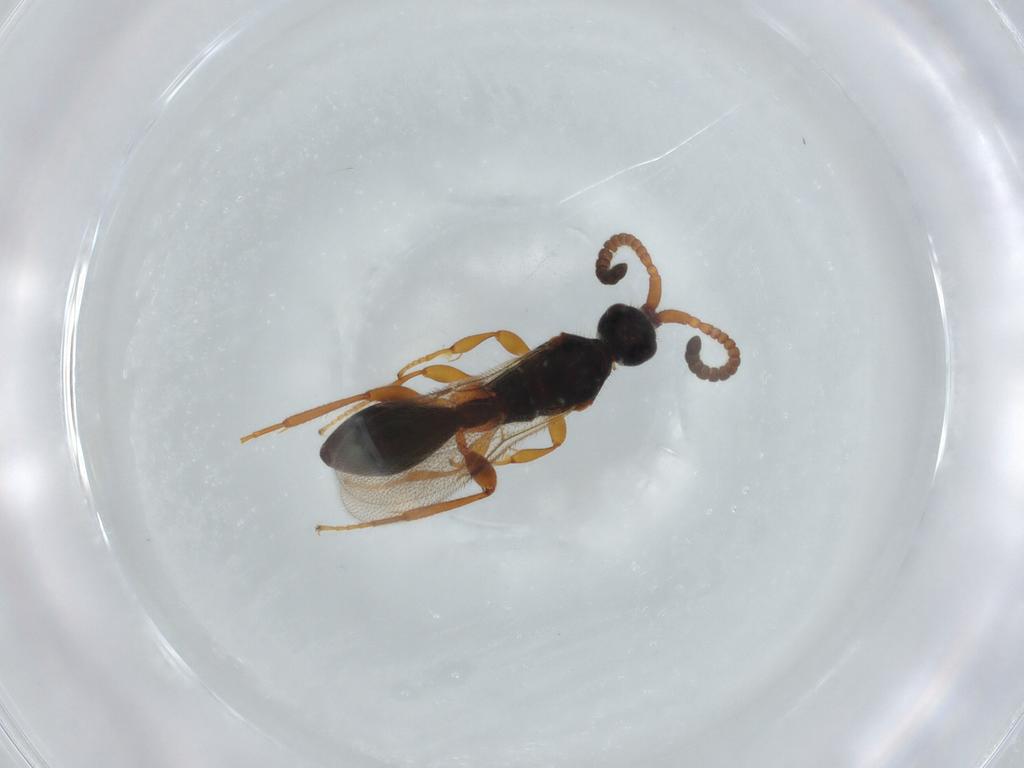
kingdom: Animalia
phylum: Arthropoda
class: Insecta
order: Hymenoptera
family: Diapriidae
